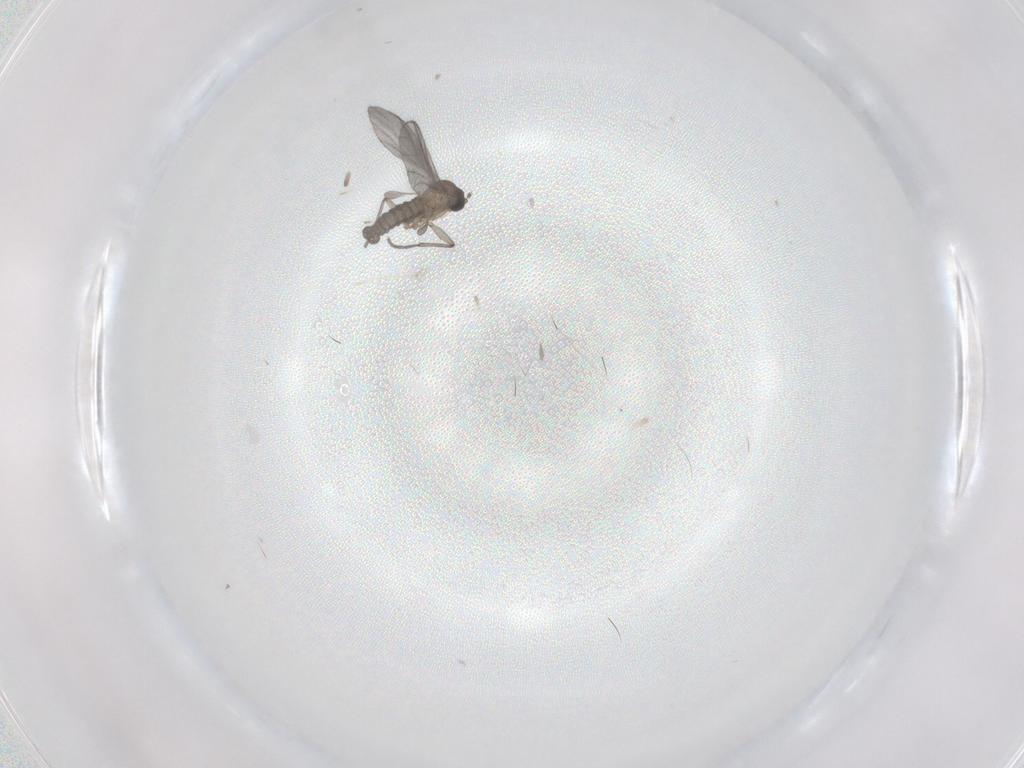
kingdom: Animalia
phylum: Arthropoda
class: Insecta
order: Diptera
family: Sciaridae
